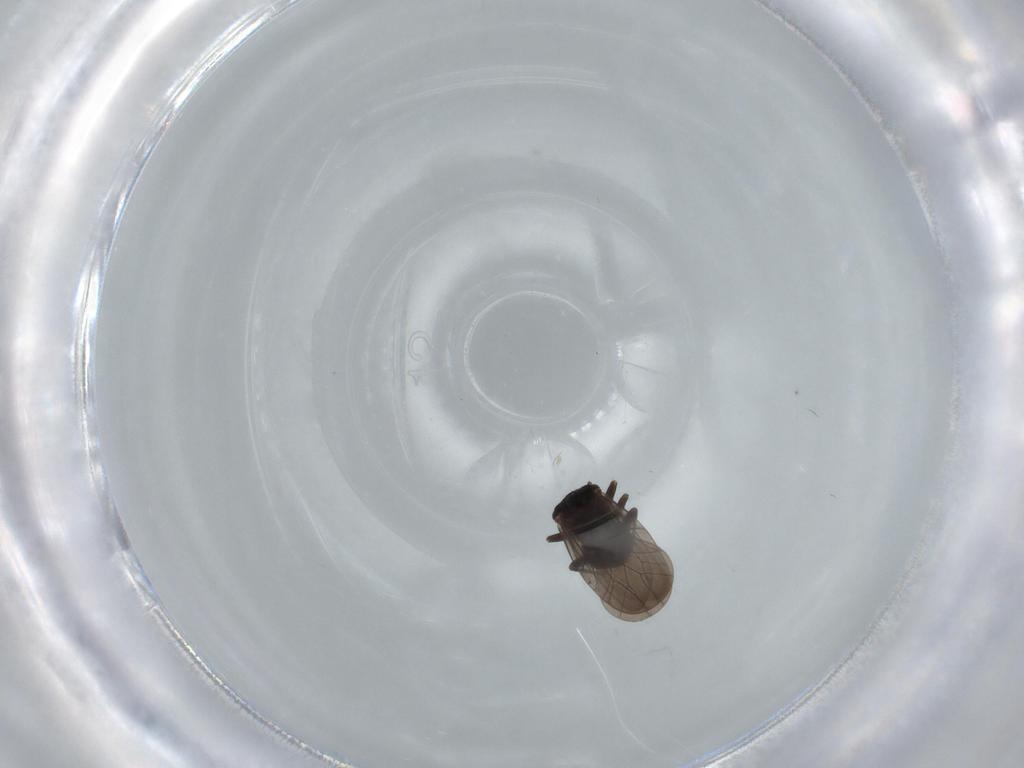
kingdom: Animalia
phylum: Arthropoda
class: Insecta
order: Psocodea
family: Lepidopsocidae
